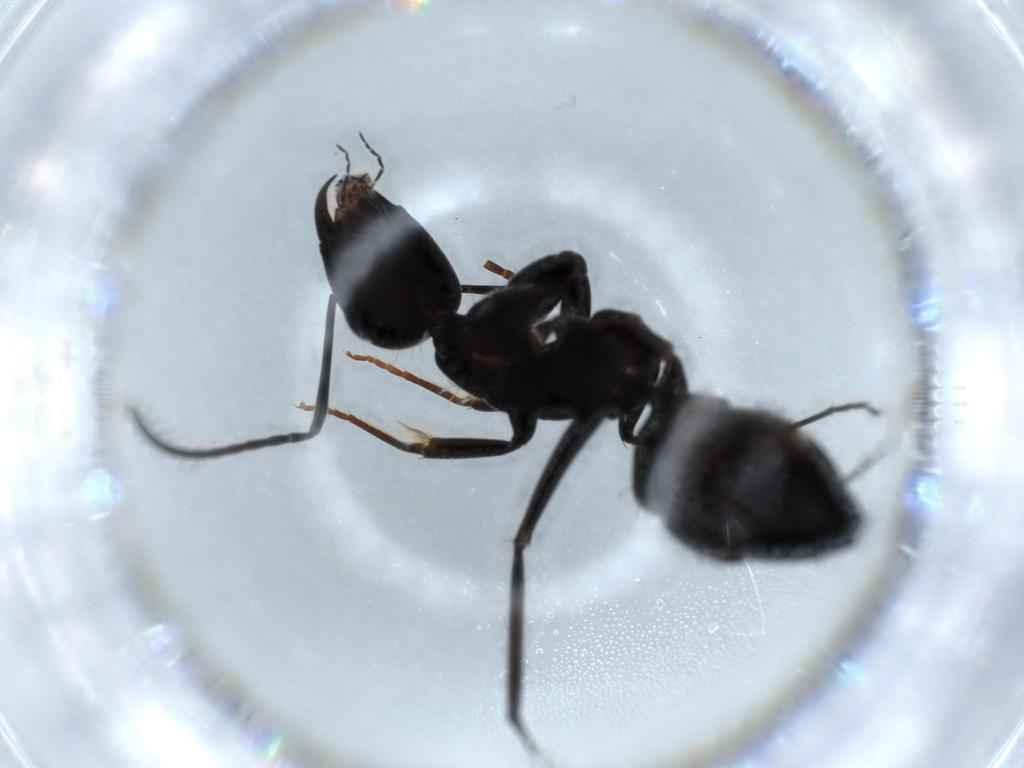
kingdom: Animalia
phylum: Arthropoda
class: Insecta
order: Hymenoptera
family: Formicidae
